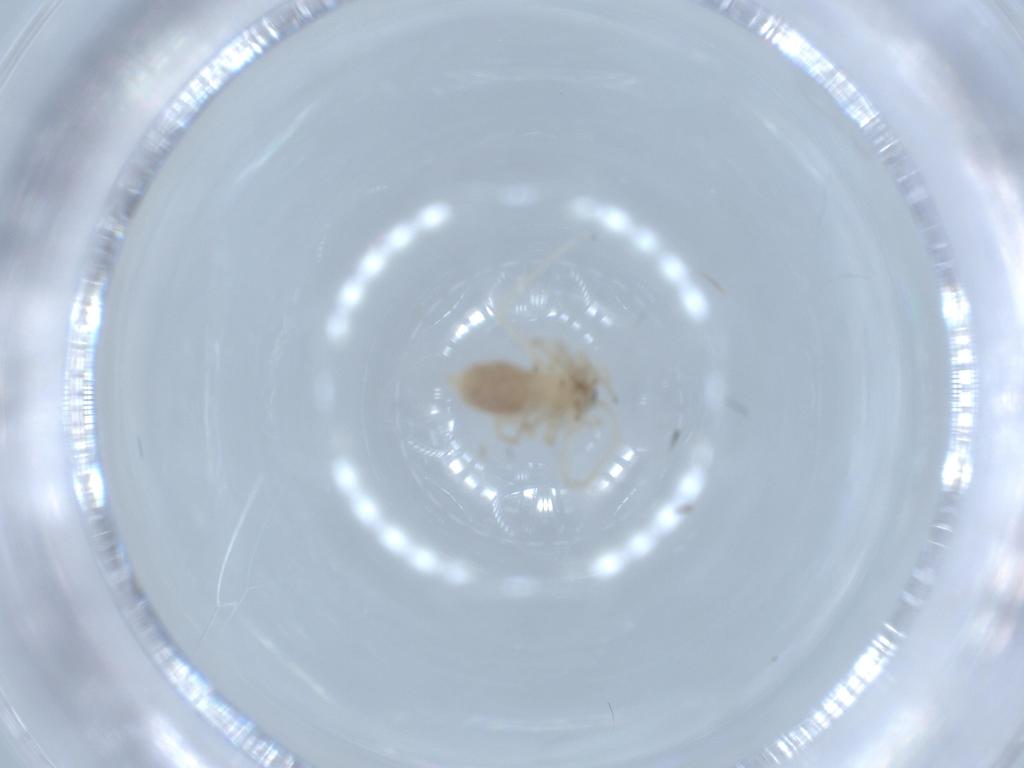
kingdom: Animalia
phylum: Arthropoda
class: Arachnida
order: Araneae
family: Anyphaenidae
